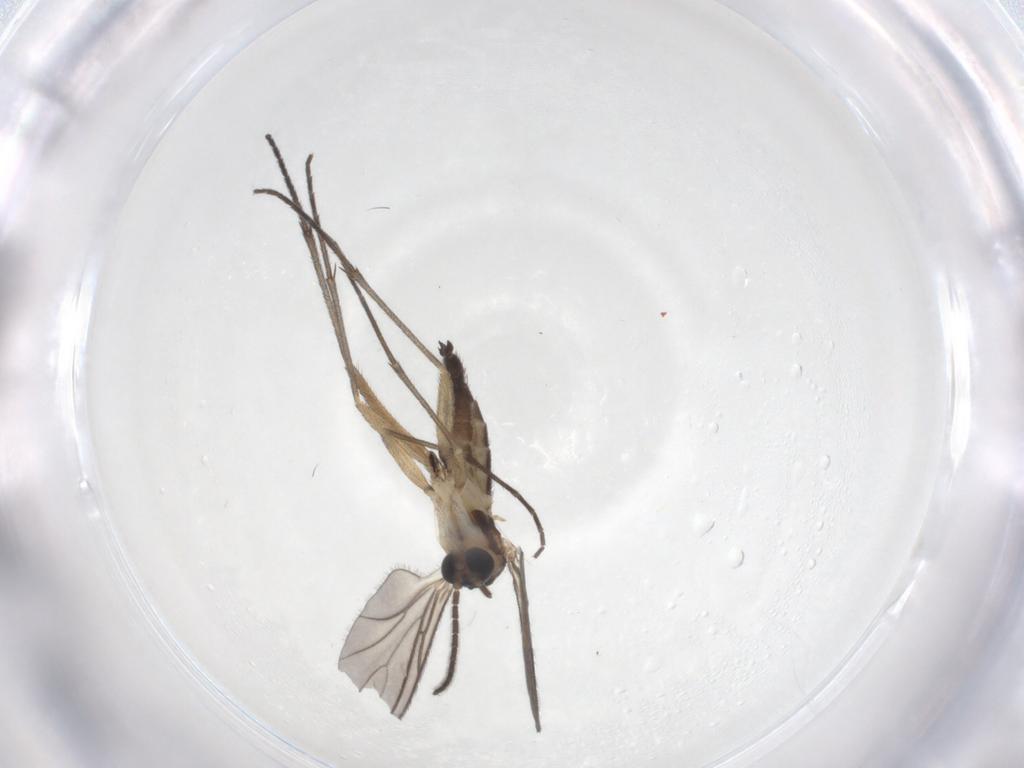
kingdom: Animalia
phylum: Arthropoda
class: Insecta
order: Diptera
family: Sciaridae
